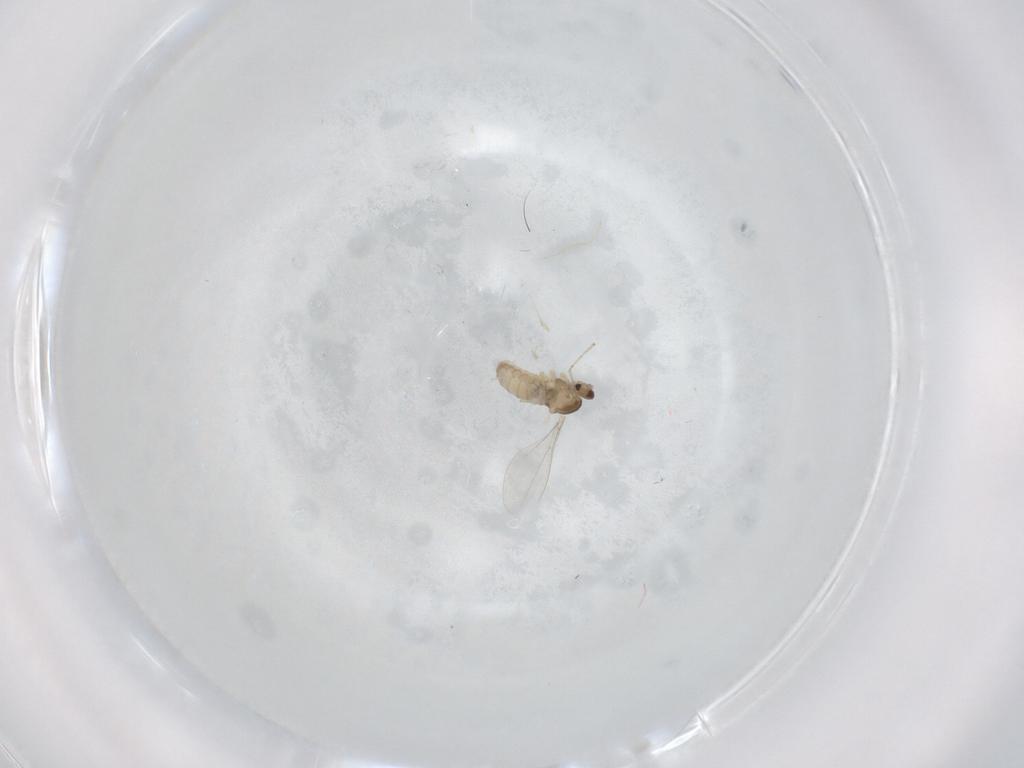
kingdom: Animalia
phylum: Arthropoda
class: Insecta
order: Diptera
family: Cecidomyiidae
